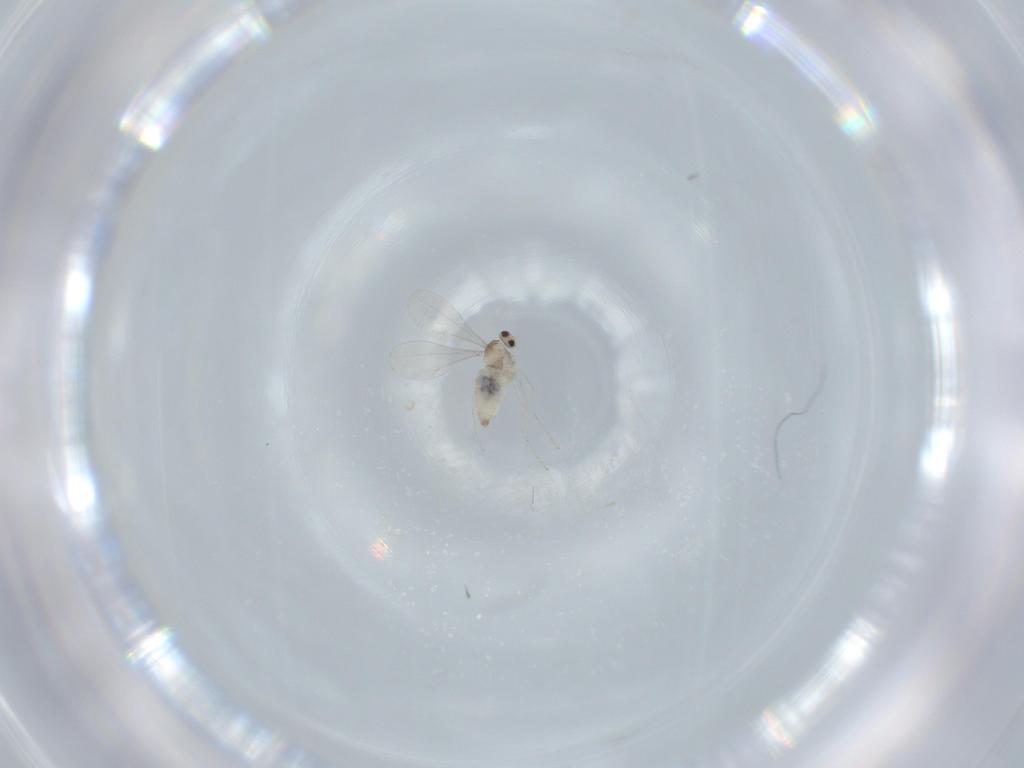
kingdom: Animalia
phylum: Arthropoda
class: Insecta
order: Diptera
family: Cecidomyiidae
